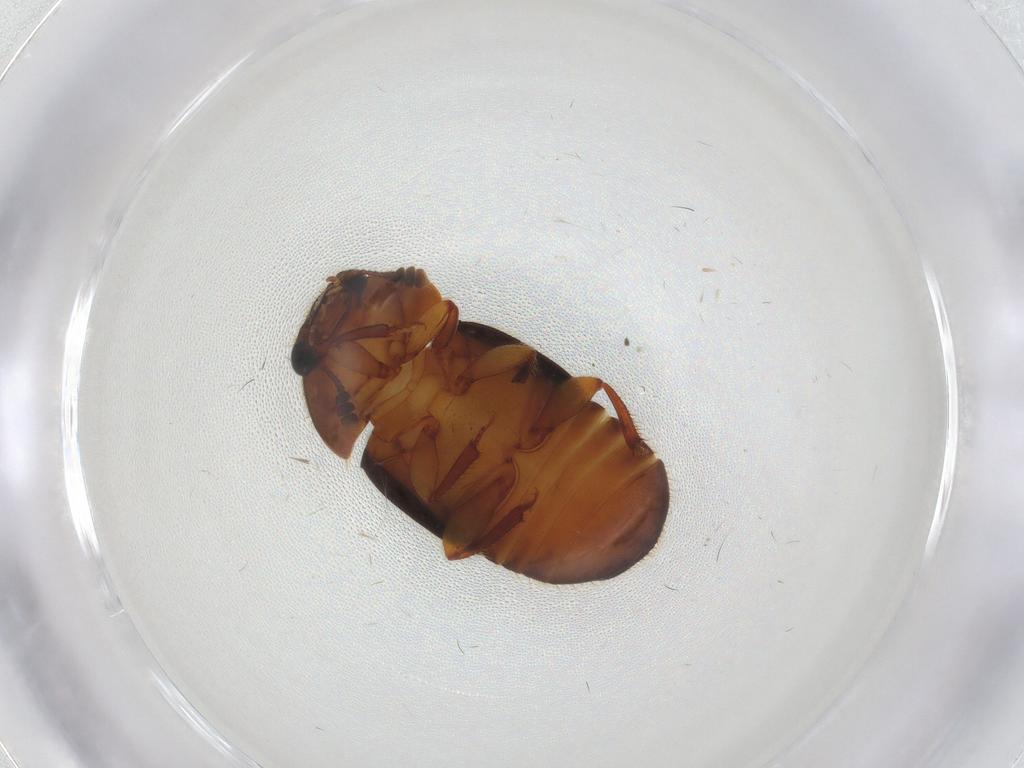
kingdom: Animalia
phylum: Arthropoda
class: Insecta
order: Coleoptera
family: Nitidulidae
